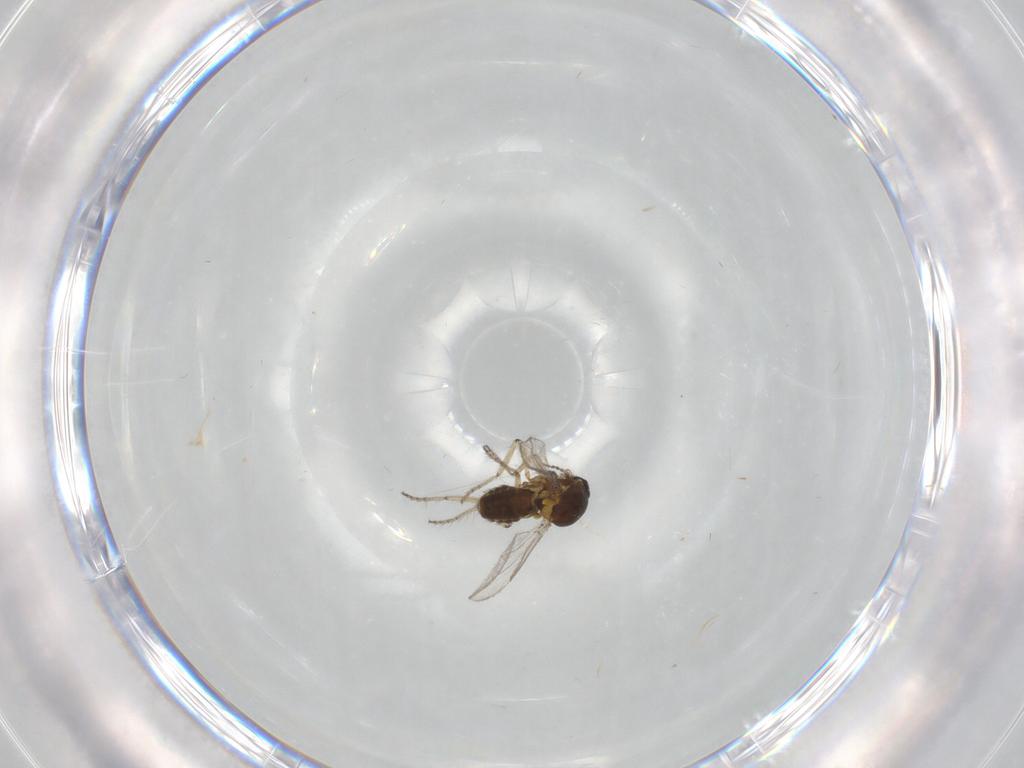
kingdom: Animalia
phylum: Arthropoda
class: Insecta
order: Diptera
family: Ceratopogonidae
